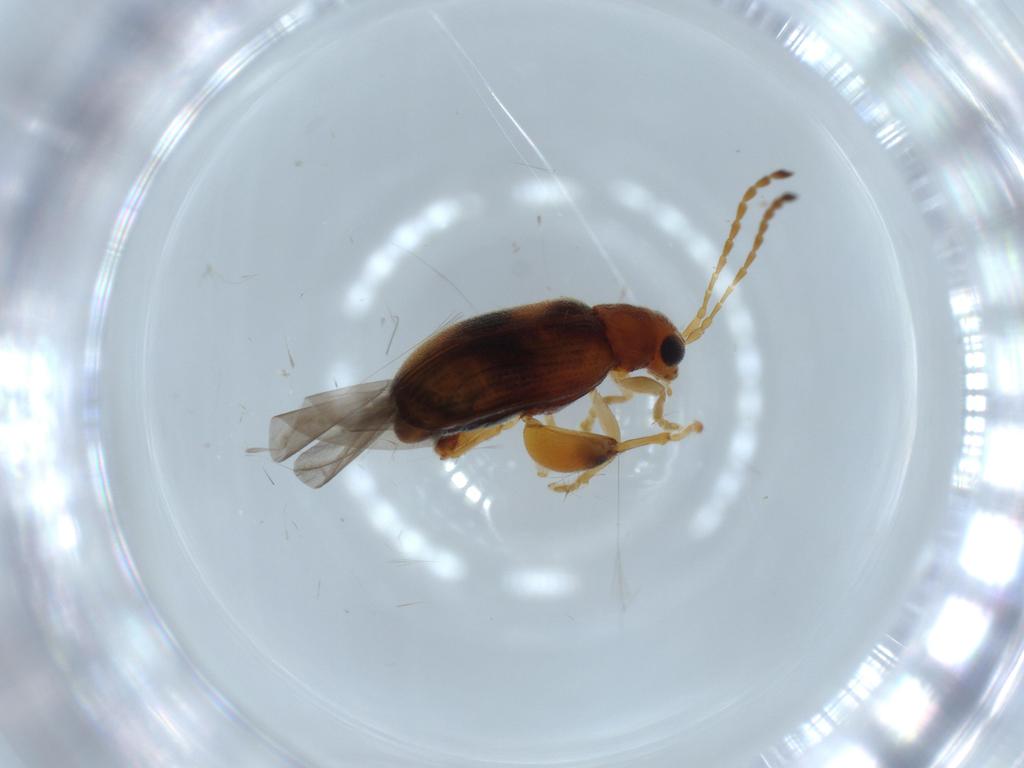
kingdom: Animalia
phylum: Arthropoda
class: Insecta
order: Coleoptera
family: Chrysomelidae
